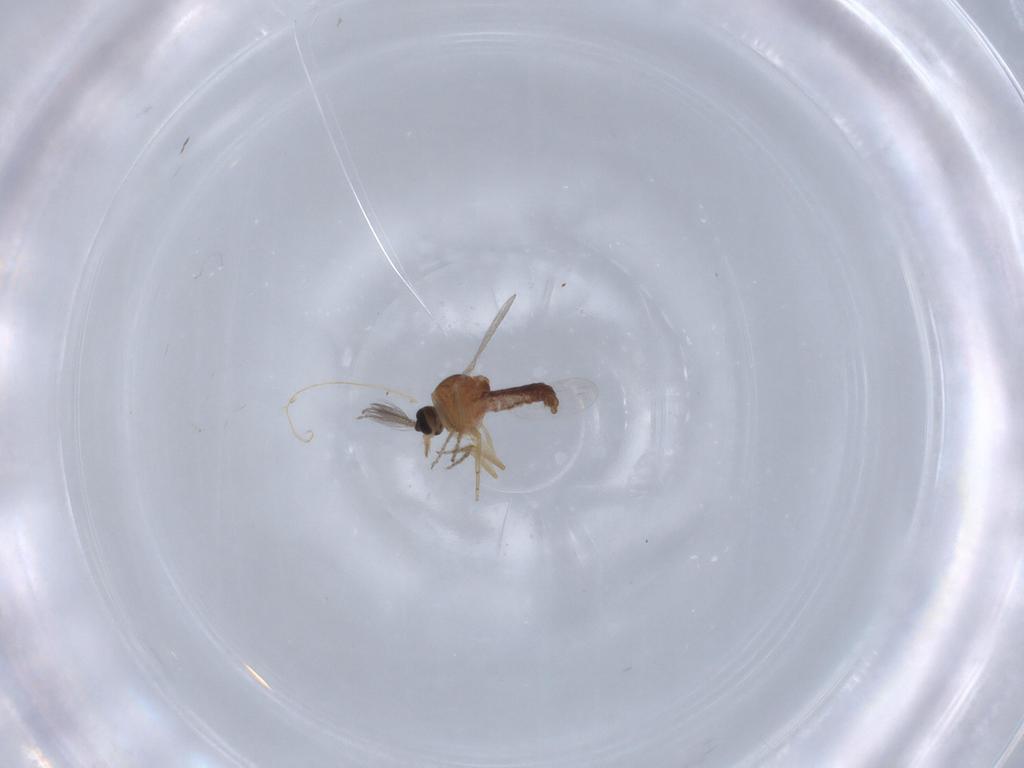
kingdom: Animalia
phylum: Arthropoda
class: Insecta
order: Diptera
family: Ceratopogonidae
